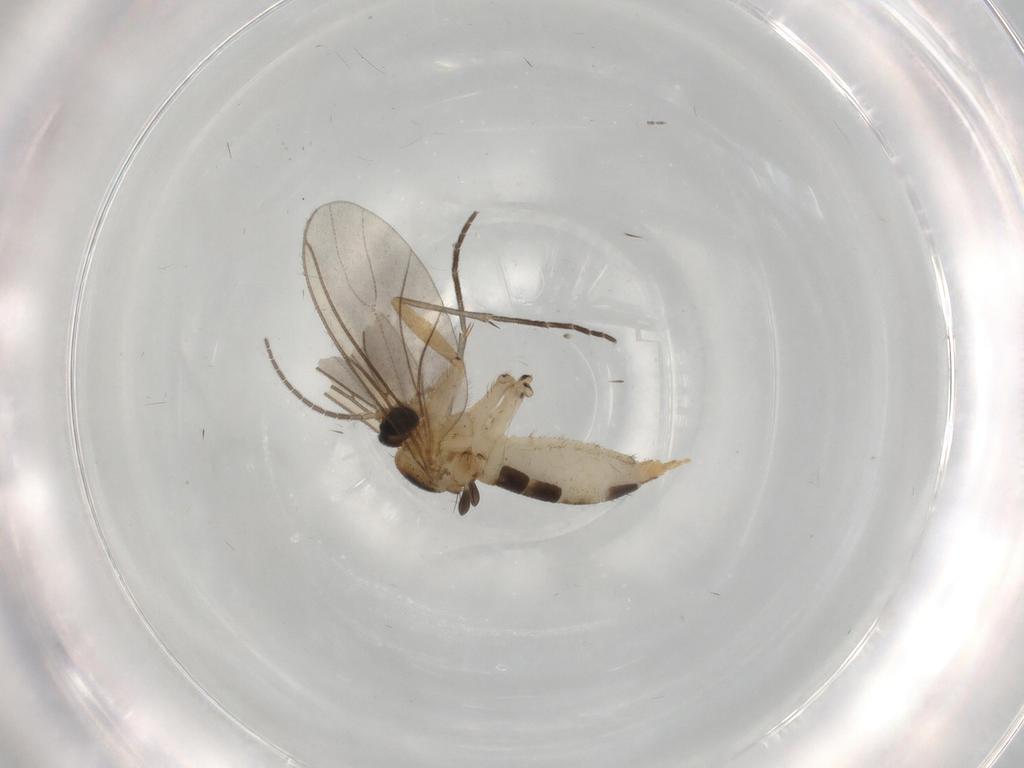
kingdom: Animalia
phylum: Arthropoda
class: Insecta
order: Diptera
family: Sciaridae
